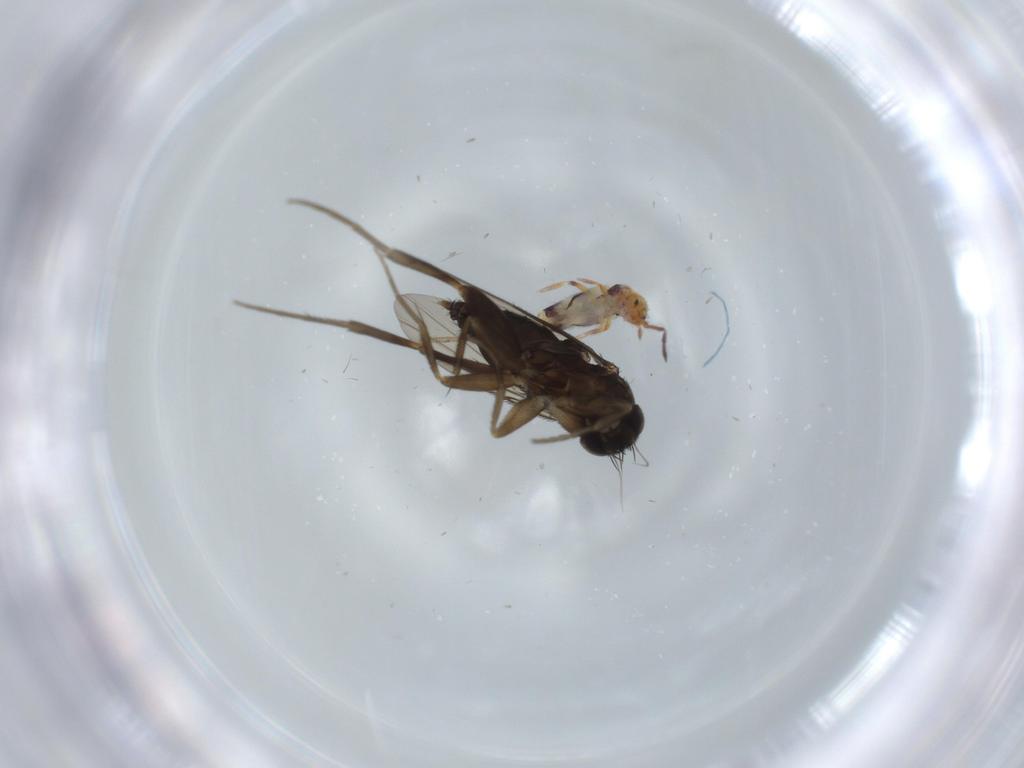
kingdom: Animalia
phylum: Arthropoda
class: Insecta
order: Diptera
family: Phoridae
